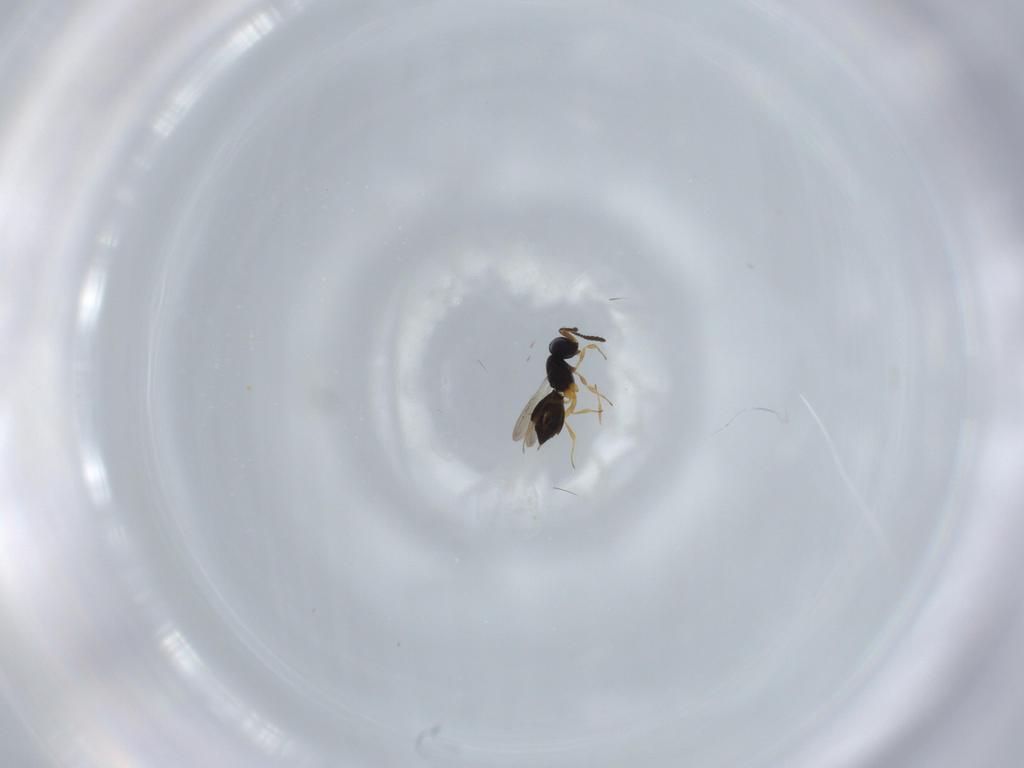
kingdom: Animalia
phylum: Arthropoda
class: Insecta
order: Hymenoptera
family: Scelionidae
